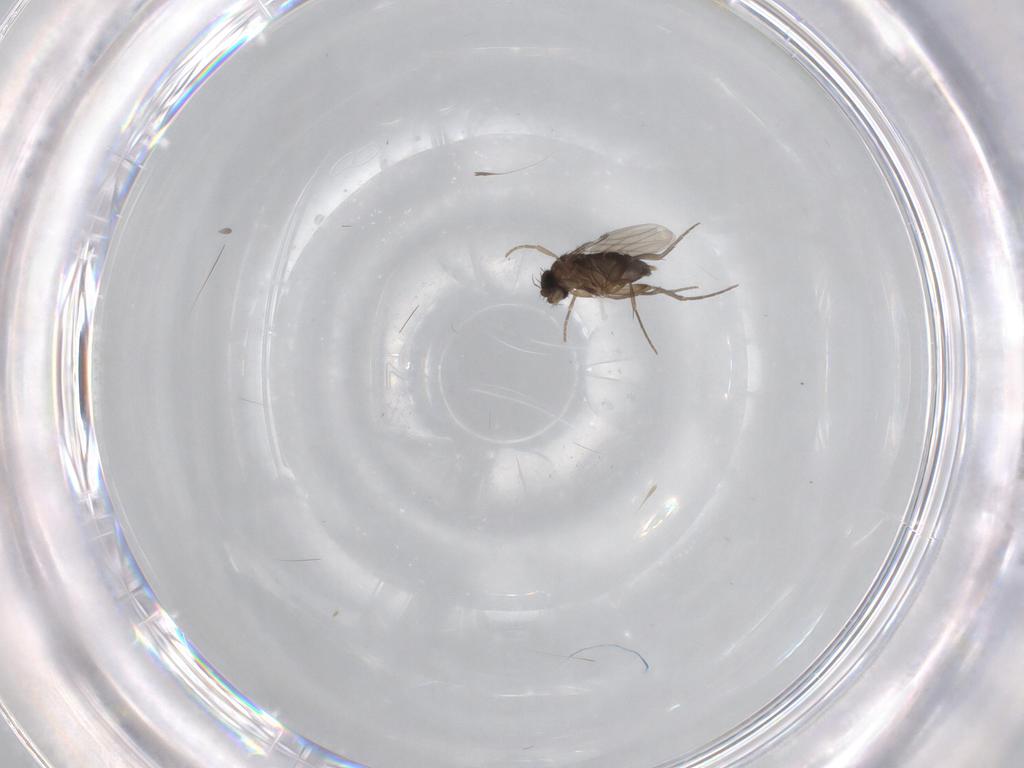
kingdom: Animalia
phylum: Arthropoda
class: Insecta
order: Diptera
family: Phoridae
